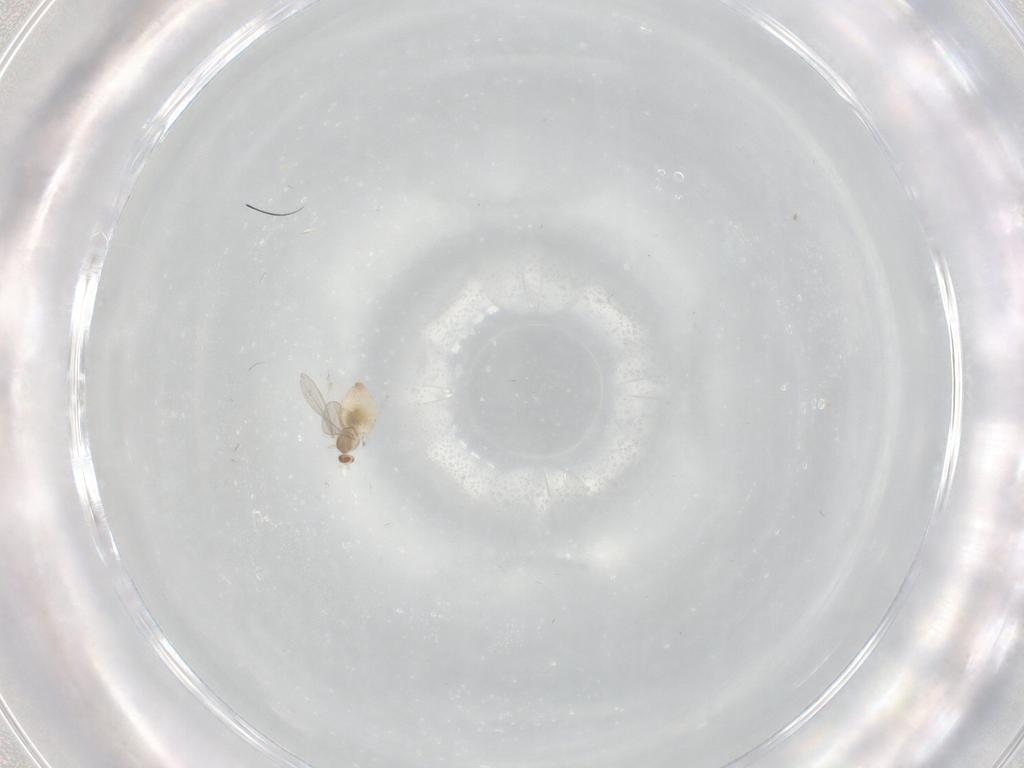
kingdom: Animalia
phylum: Arthropoda
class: Insecta
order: Diptera
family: Cecidomyiidae
